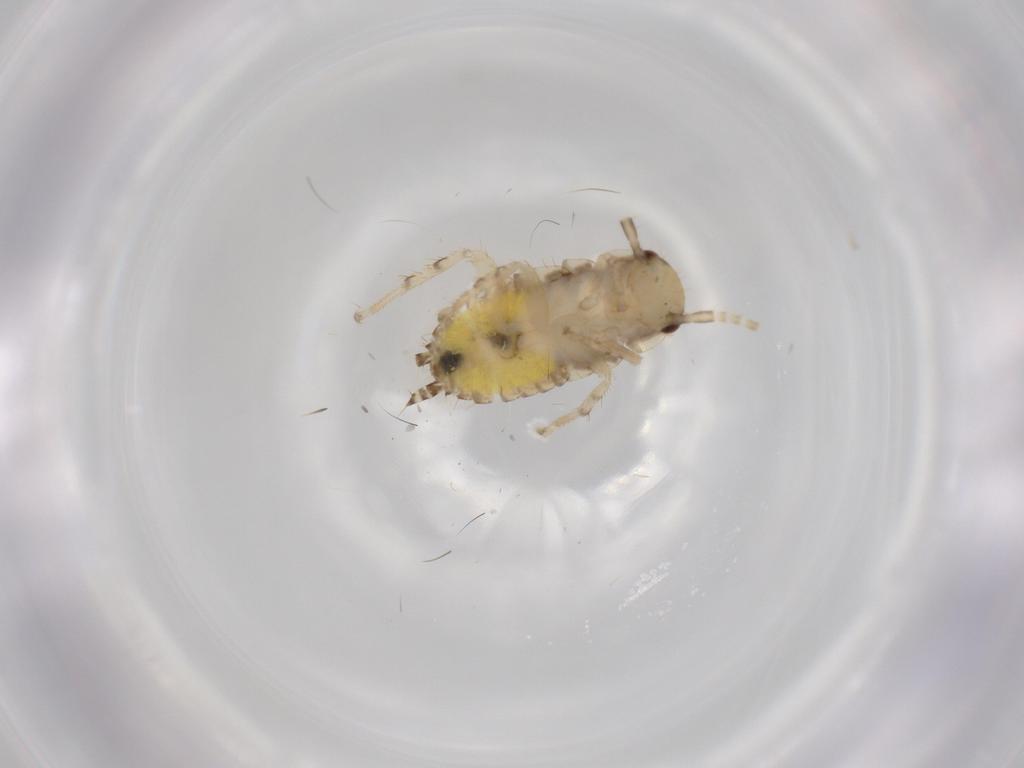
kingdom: Animalia
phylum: Arthropoda
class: Insecta
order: Blattodea
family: Ectobiidae
